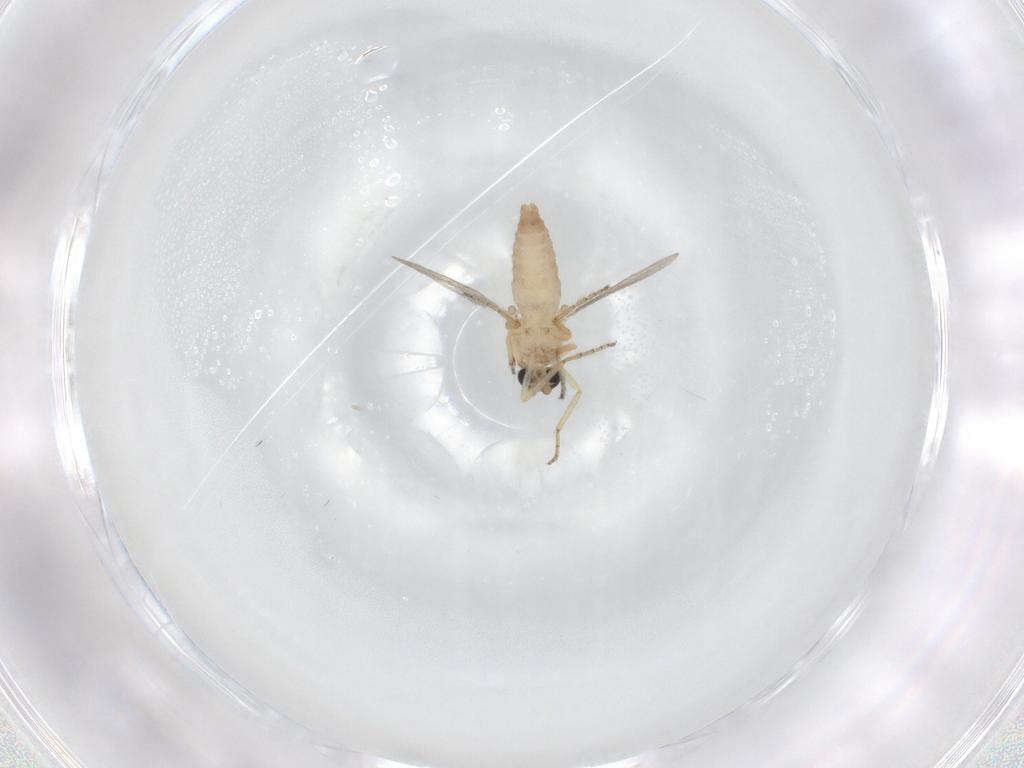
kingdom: Animalia
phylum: Arthropoda
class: Insecta
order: Diptera
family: Ceratopogonidae
